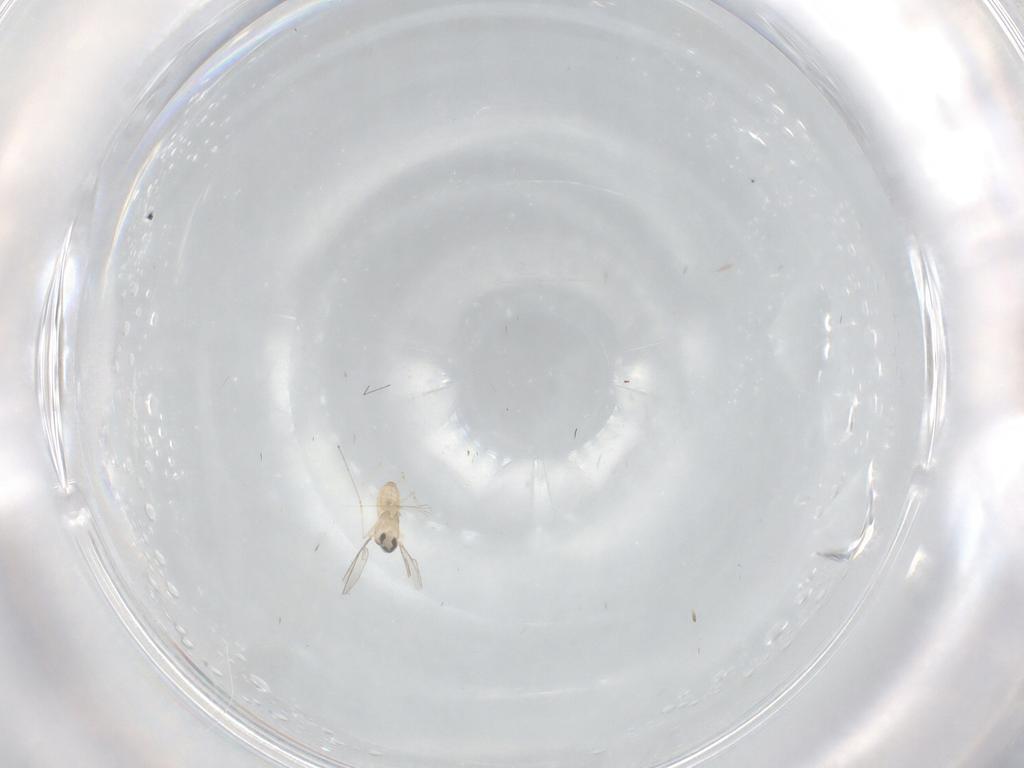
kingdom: Animalia
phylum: Arthropoda
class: Insecta
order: Diptera
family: Cecidomyiidae
